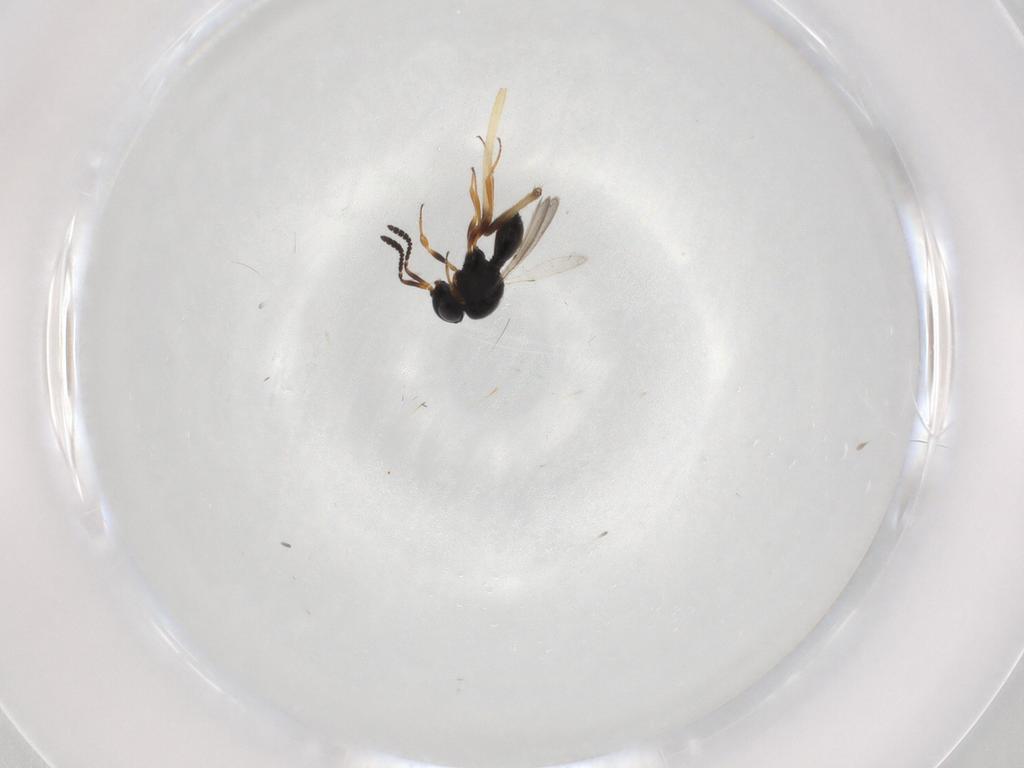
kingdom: Animalia
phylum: Arthropoda
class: Insecta
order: Hymenoptera
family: Scelionidae
